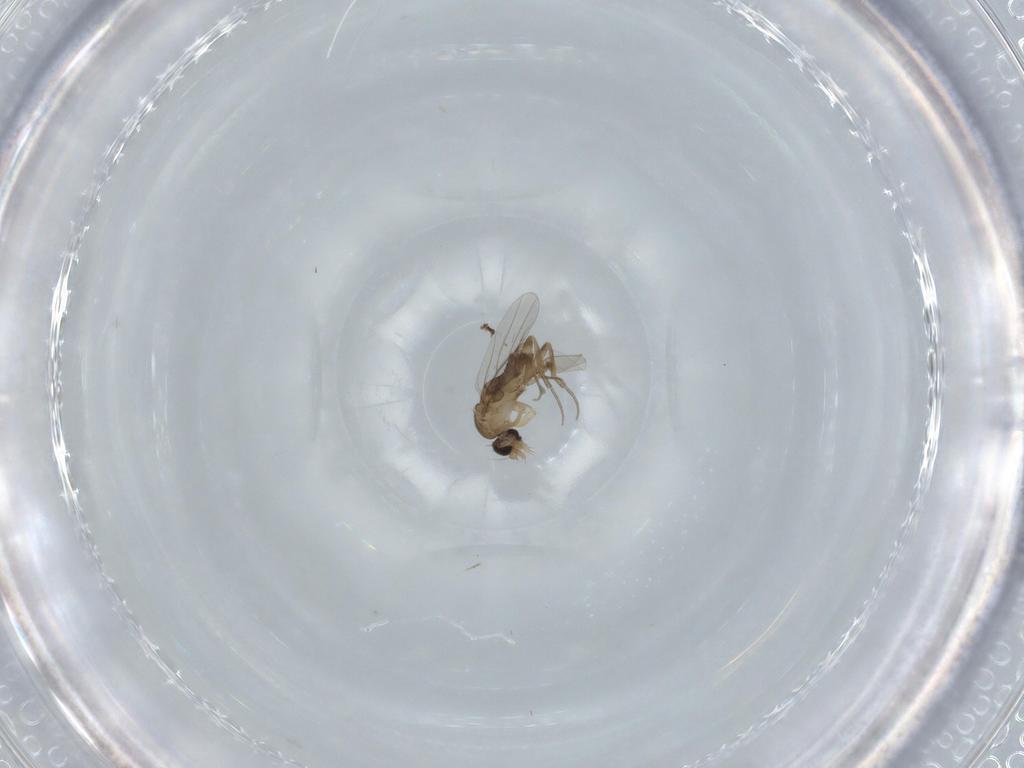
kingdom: Animalia
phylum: Arthropoda
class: Insecta
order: Diptera
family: Phoridae
